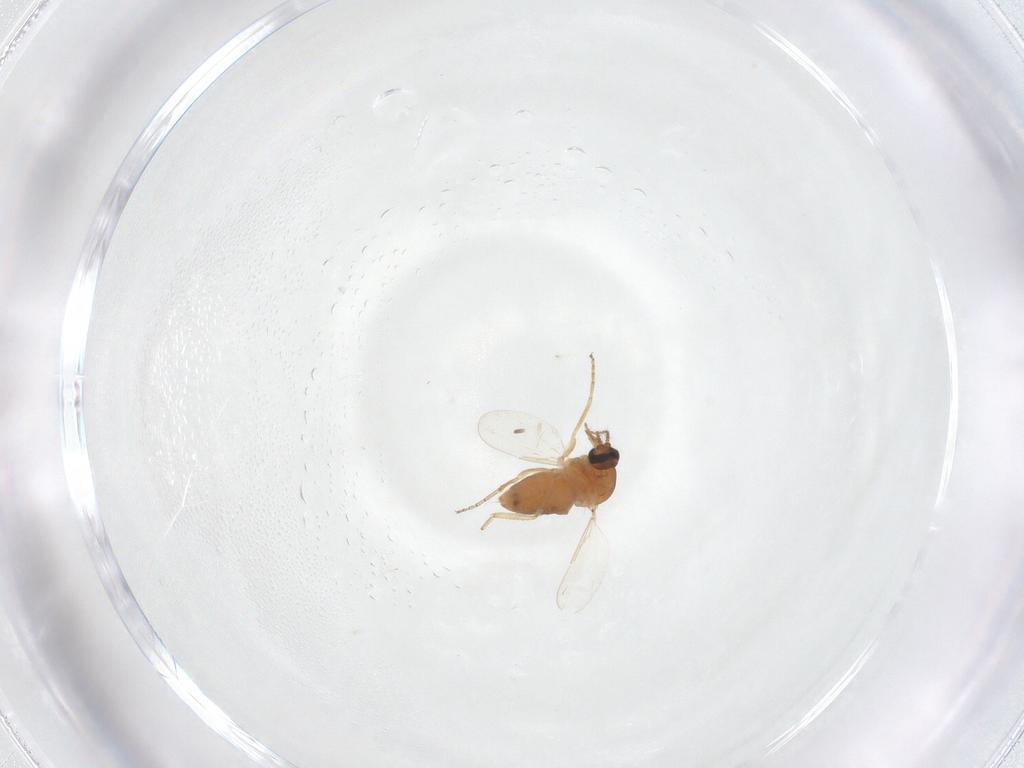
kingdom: Animalia
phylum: Arthropoda
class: Insecta
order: Diptera
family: Ceratopogonidae
